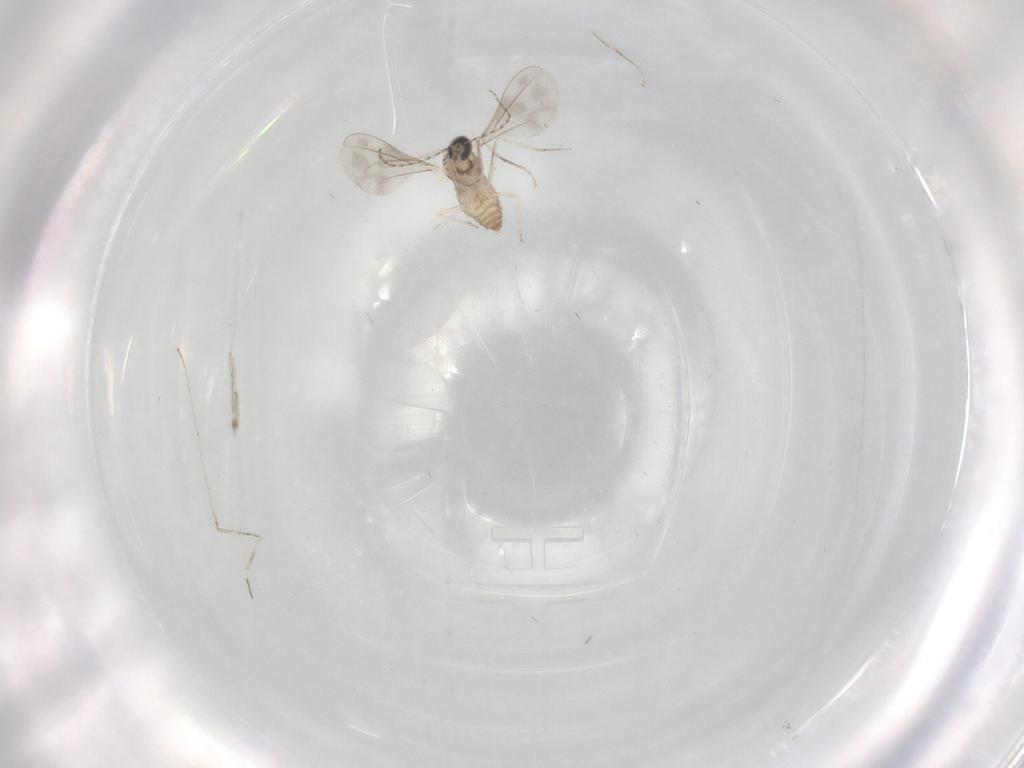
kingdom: Animalia
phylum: Arthropoda
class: Insecta
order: Diptera
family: Cecidomyiidae
